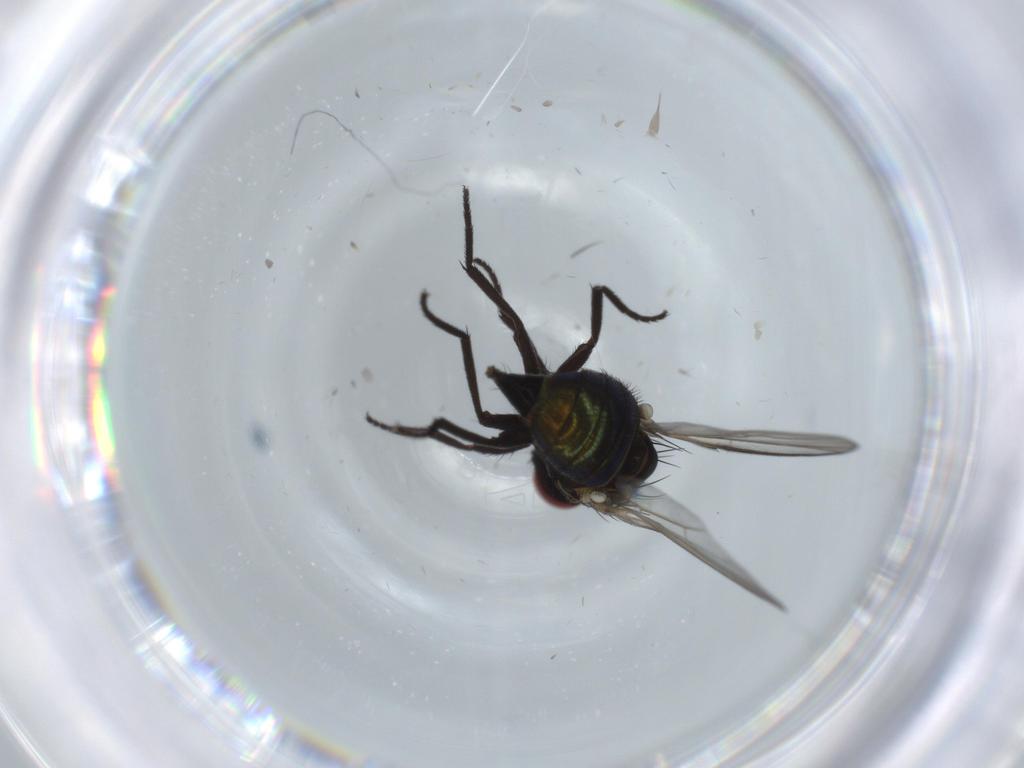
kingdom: Animalia
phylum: Arthropoda
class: Insecta
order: Diptera
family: Agromyzidae
